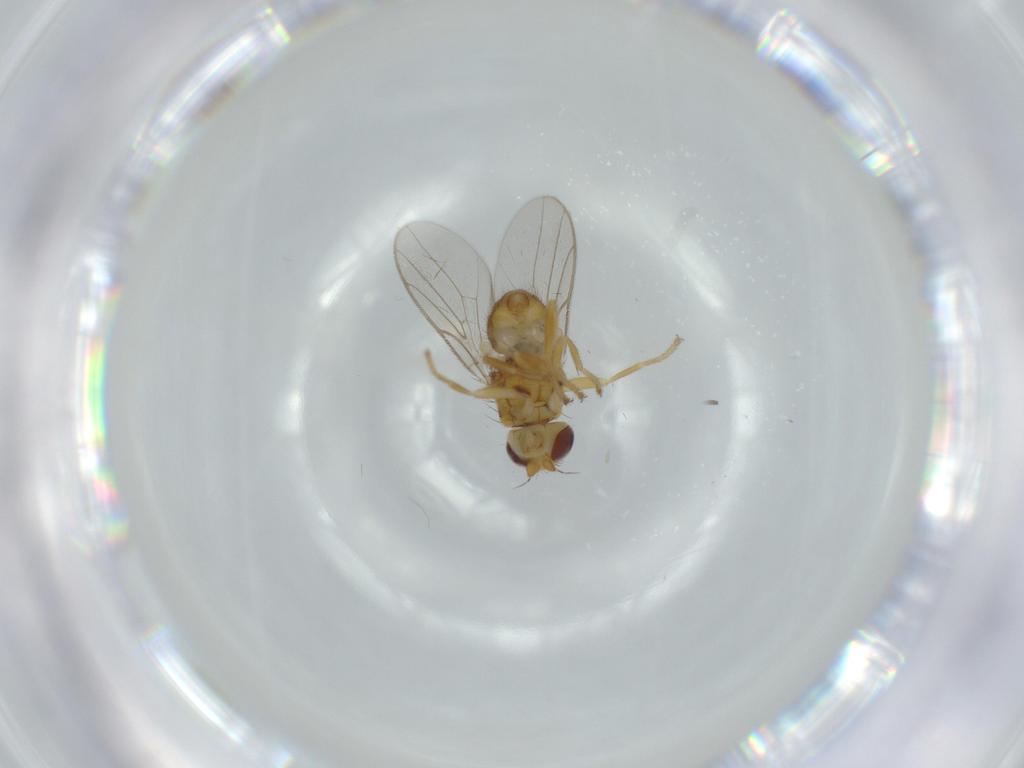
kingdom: Animalia
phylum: Arthropoda
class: Insecta
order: Diptera
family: Chloropidae
